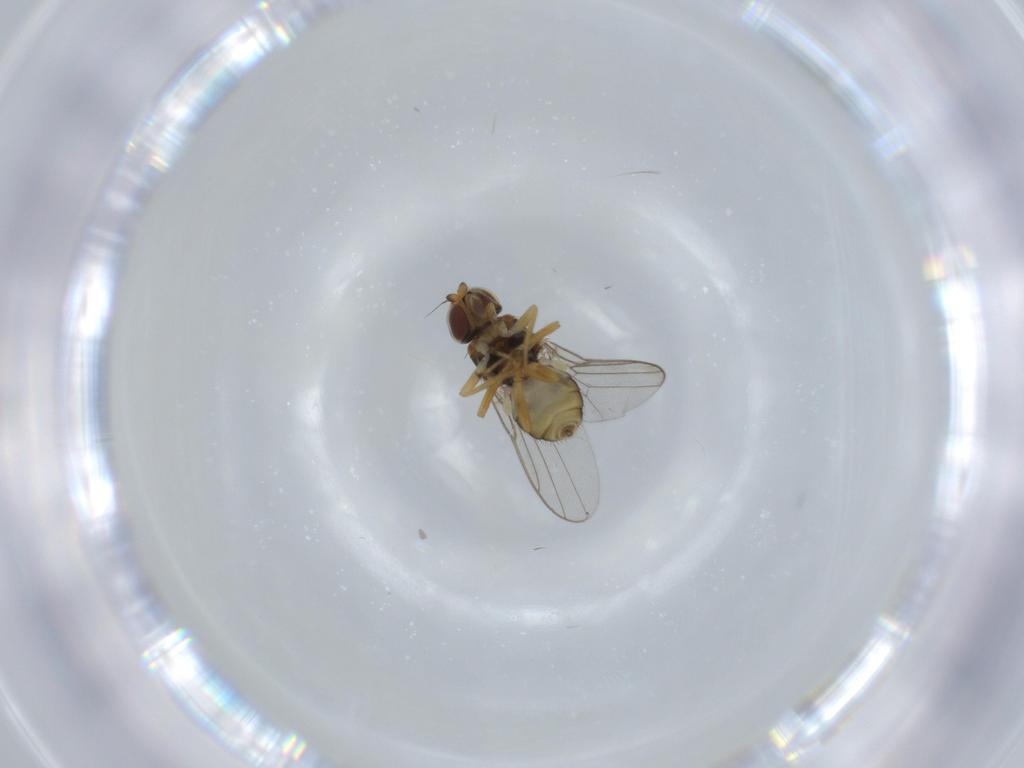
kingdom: Animalia
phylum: Arthropoda
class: Insecta
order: Diptera
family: Chloropidae
